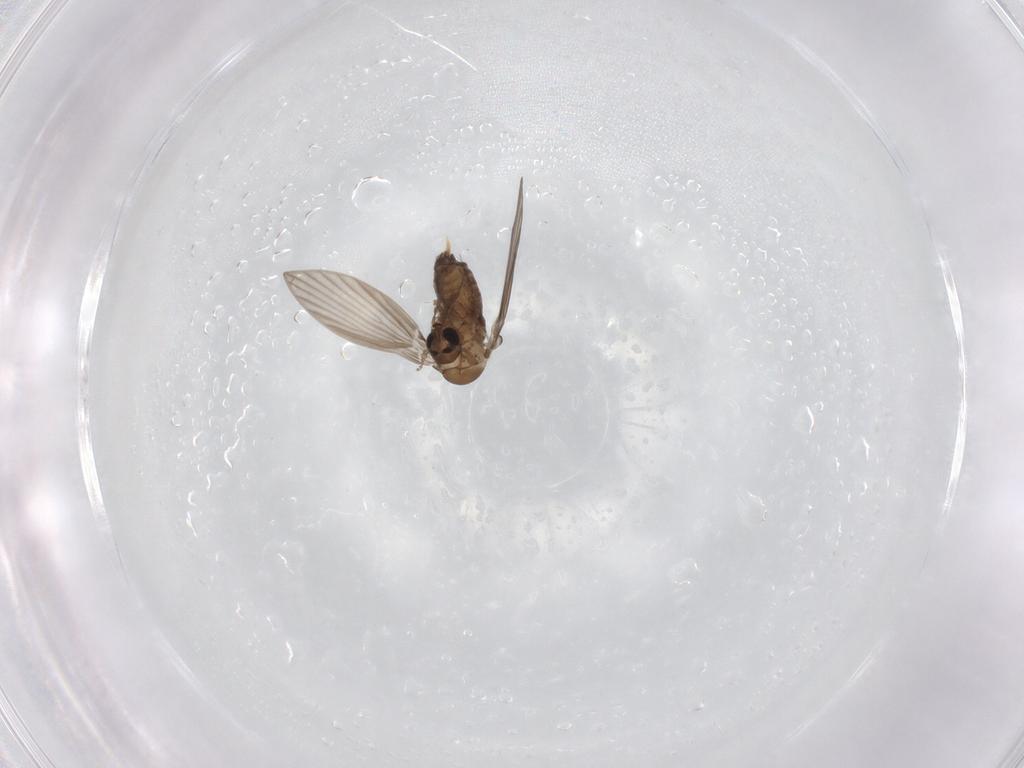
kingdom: Animalia
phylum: Arthropoda
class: Insecta
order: Diptera
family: Psychodidae
